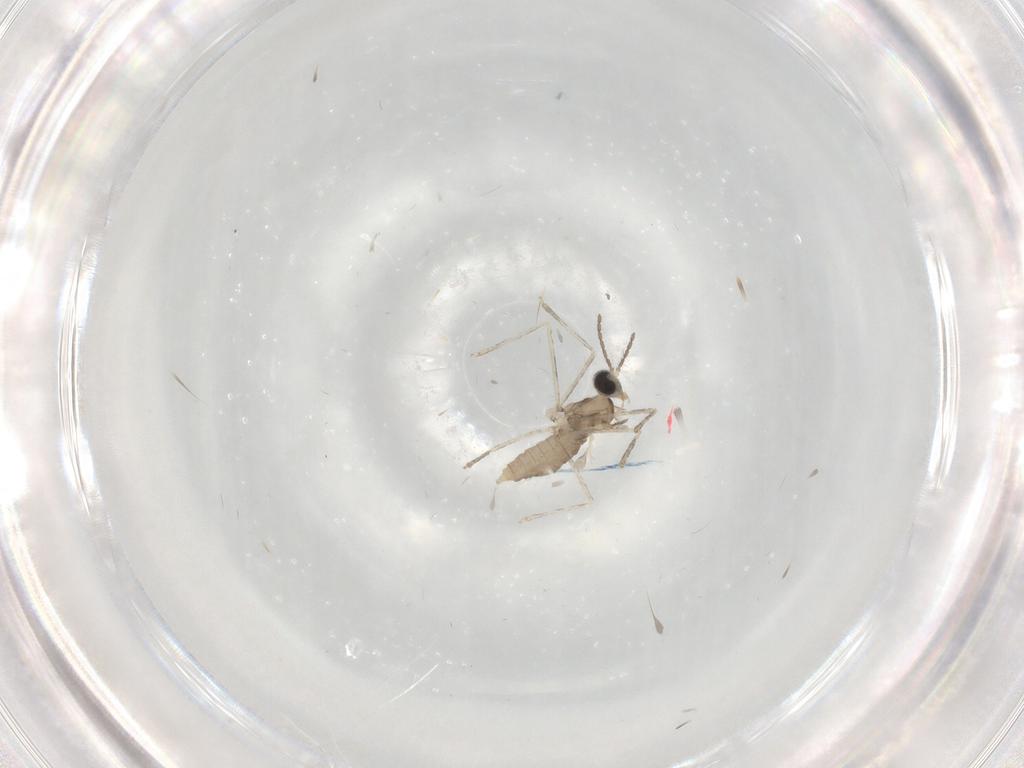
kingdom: Animalia
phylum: Arthropoda
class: Insecta
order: Diptera
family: Cecidomyiidae
